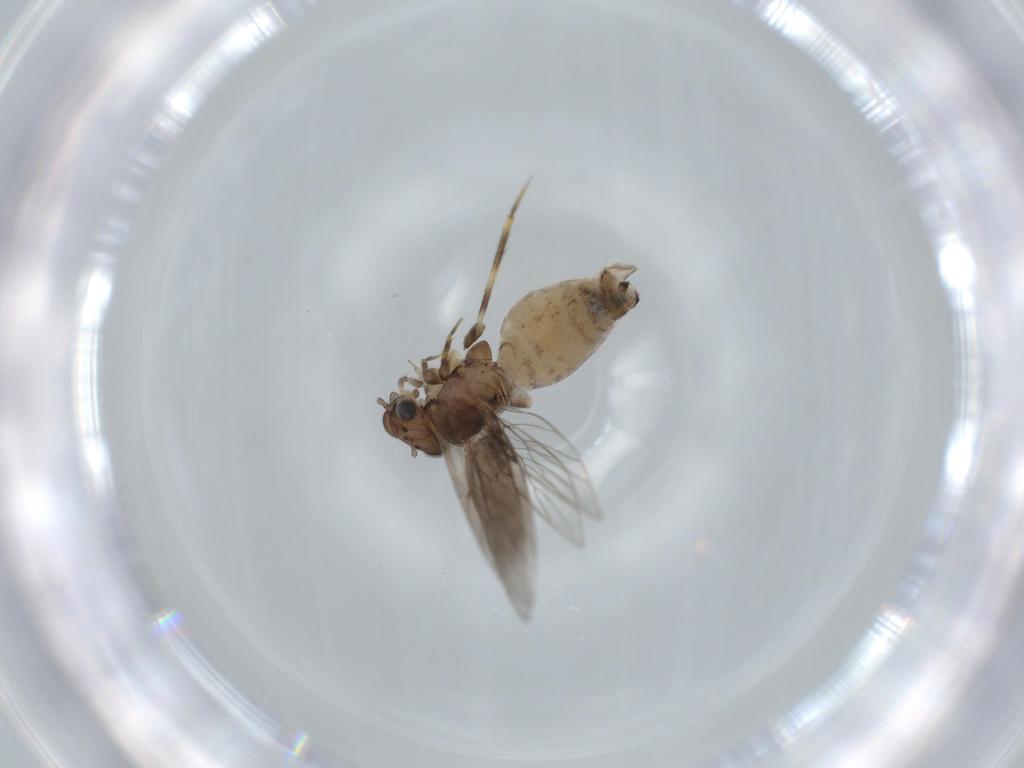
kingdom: Animalia
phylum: Arthropoda
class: Insecta
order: Psocodea
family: Lepidopsocidae
